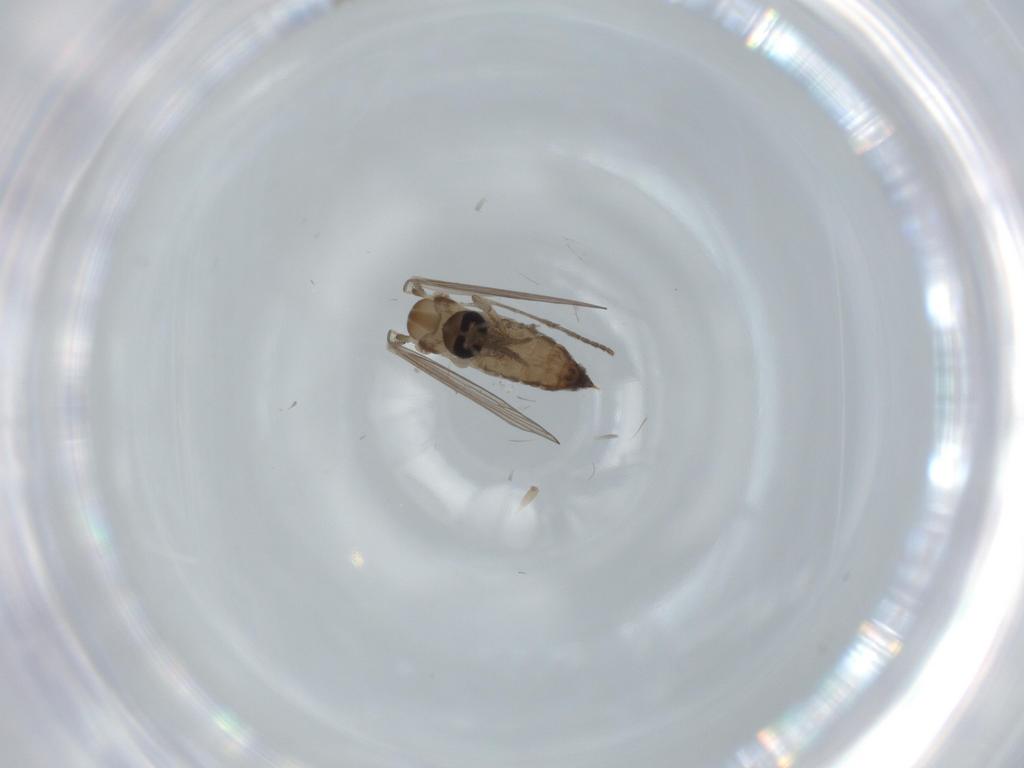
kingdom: Animalia
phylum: Arthropoda
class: Insecta
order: Diptera
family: Psychodidae
